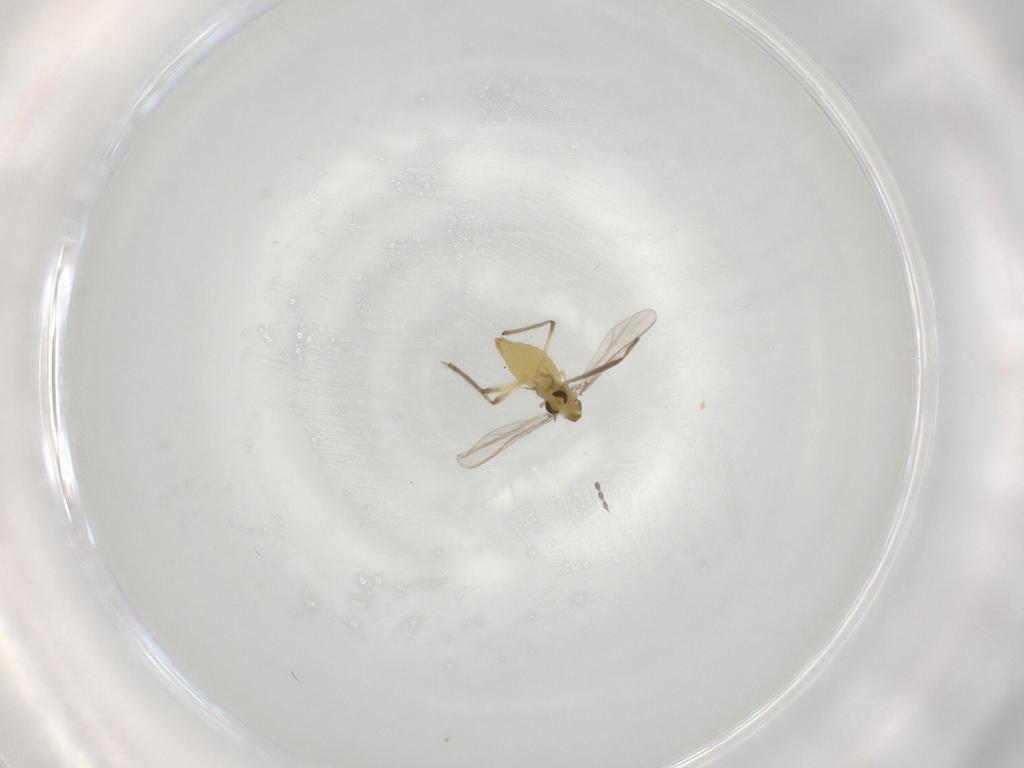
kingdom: Animalia
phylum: Arthropoda
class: Insecta
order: Diptera
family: Chironomidae
